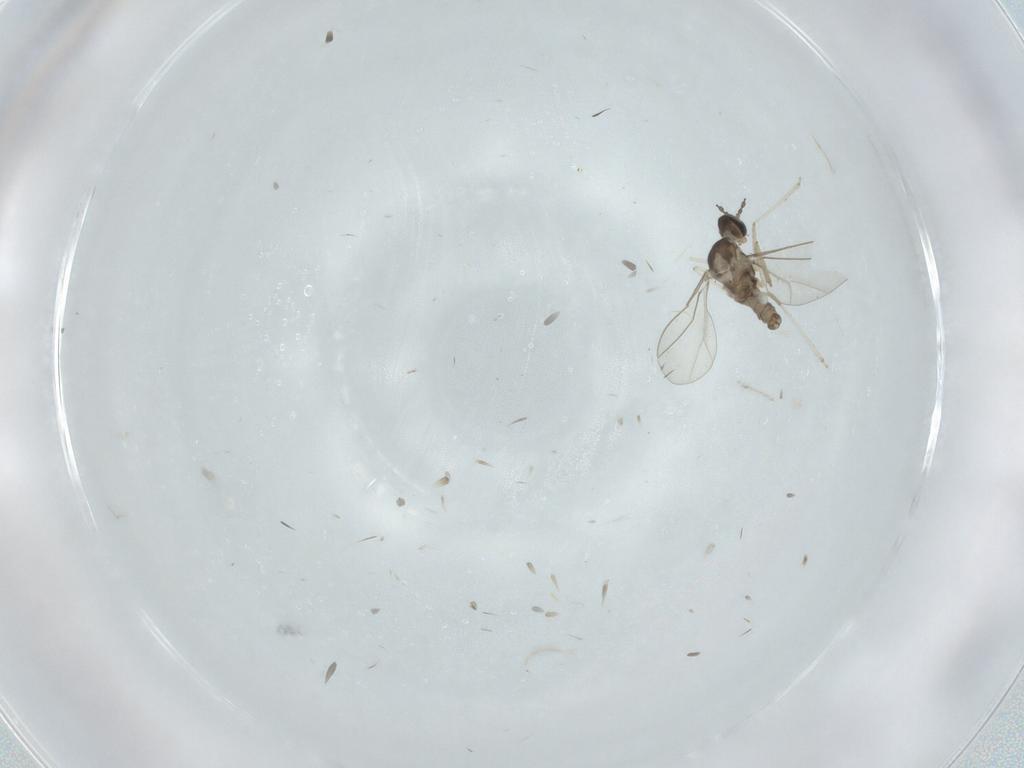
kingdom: Animalia
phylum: Arthropoda
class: Insecta
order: Diptera
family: Cecidomyiidae
